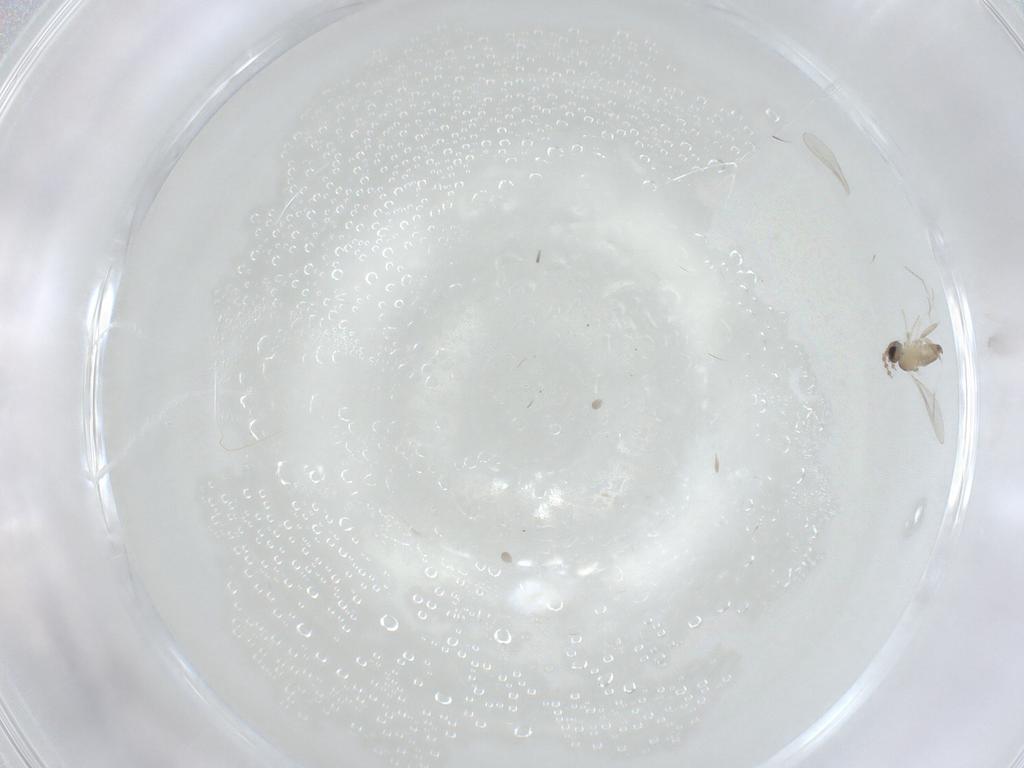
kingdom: Animalia
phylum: Arthropoda
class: Insecta
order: Diptera
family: Cecidomyiidae
